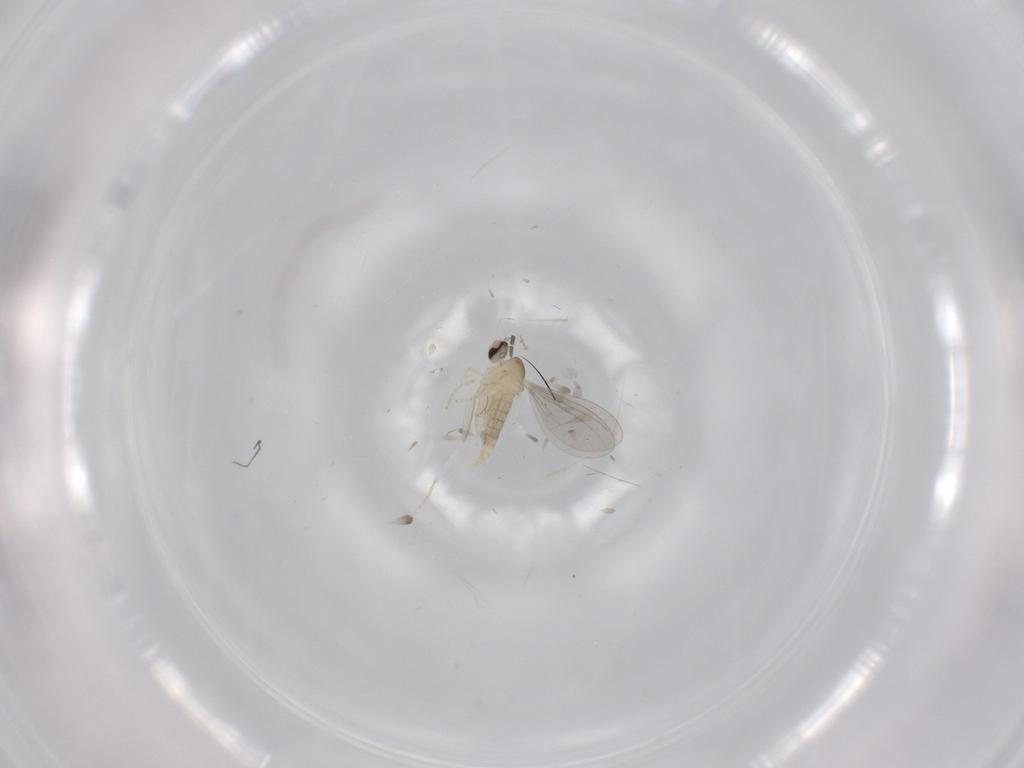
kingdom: Animalia
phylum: Arthropoda
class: Insecta
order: Diptera
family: Cecidomyiidae
